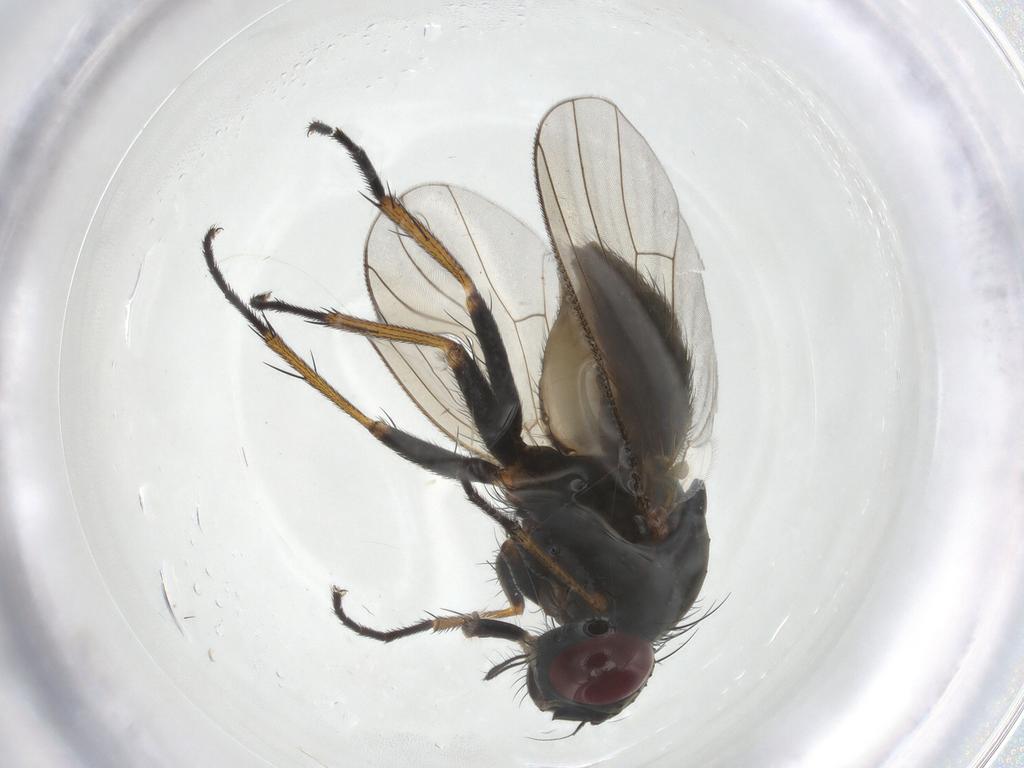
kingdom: Animalia
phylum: Arthropoda
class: Insecta
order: Diptera
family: Muscidae
